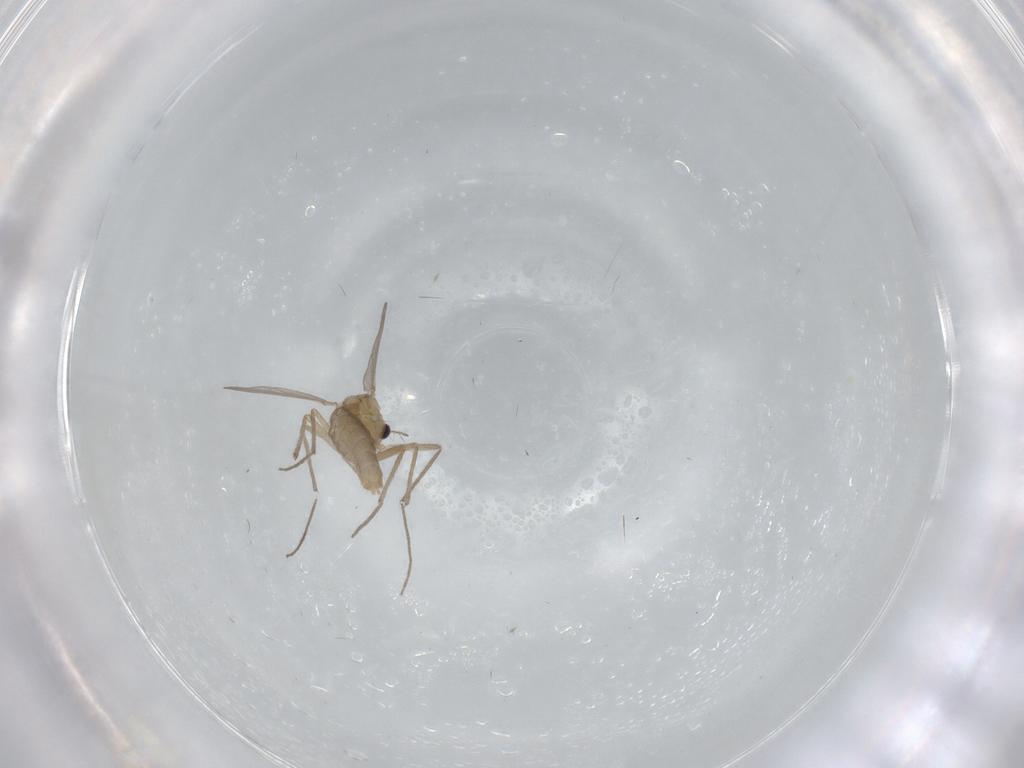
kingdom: Animalia
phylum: Arthropoda
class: Insecta
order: Diptera
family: Chironomidae
